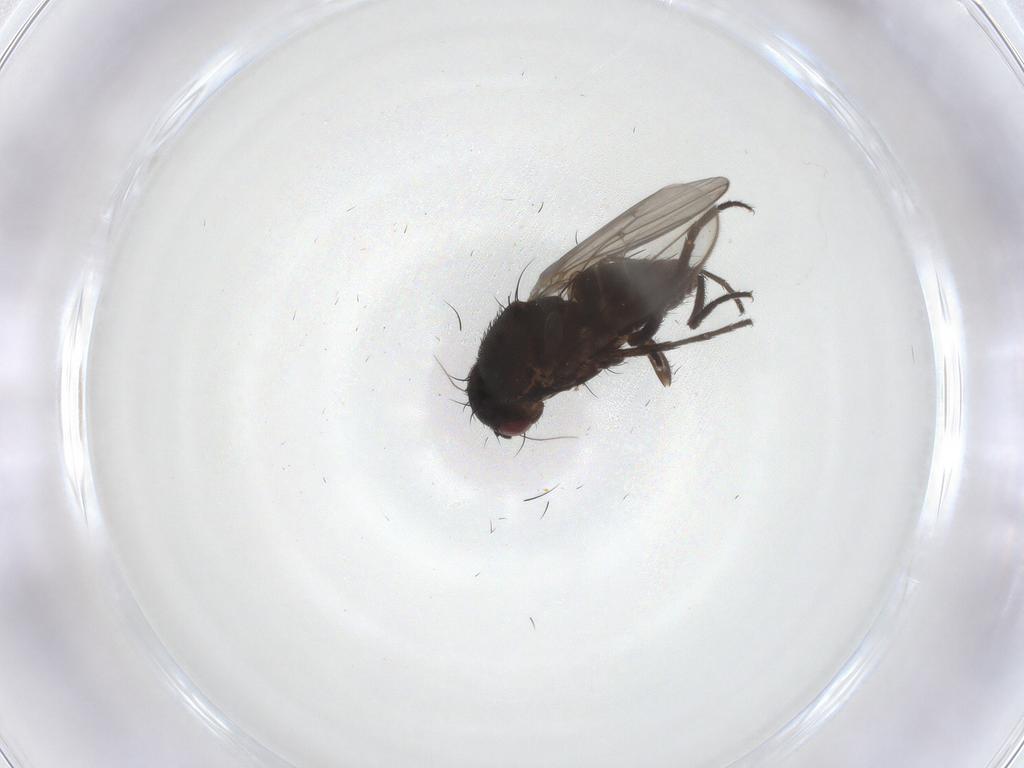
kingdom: Animalia
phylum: Arthropoda
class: Insecta
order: Diptera
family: Sphaeroceridae
